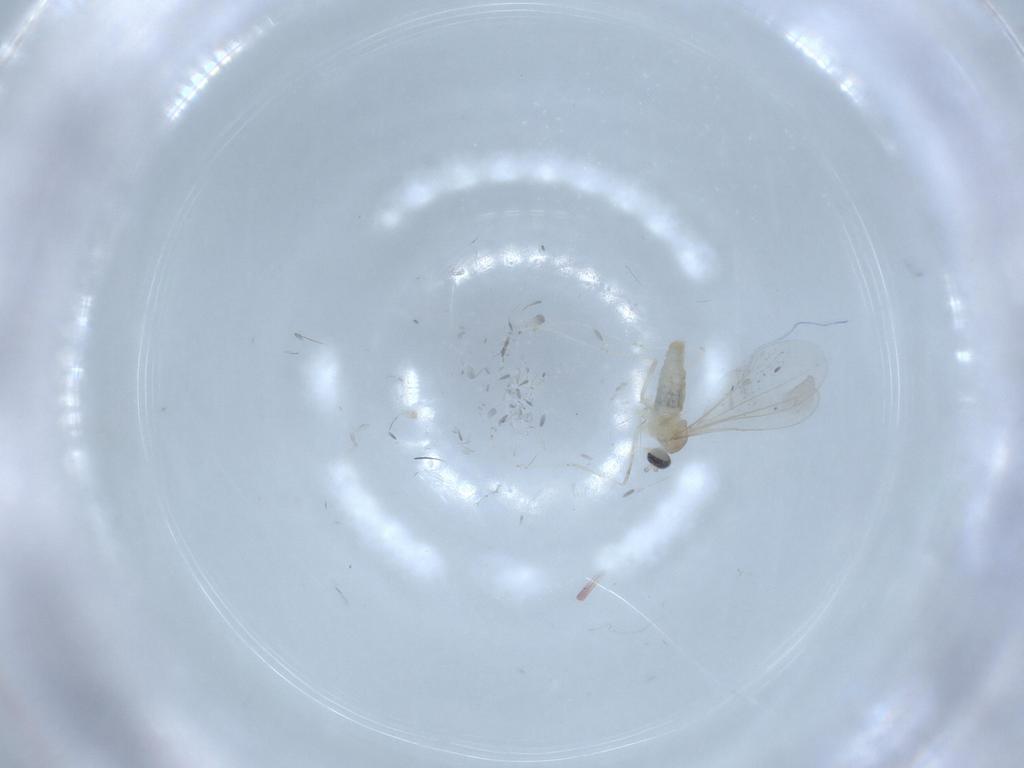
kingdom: Animalia
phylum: Arthropoda
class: Insecta
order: Diptera
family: Cecidomyiidae
